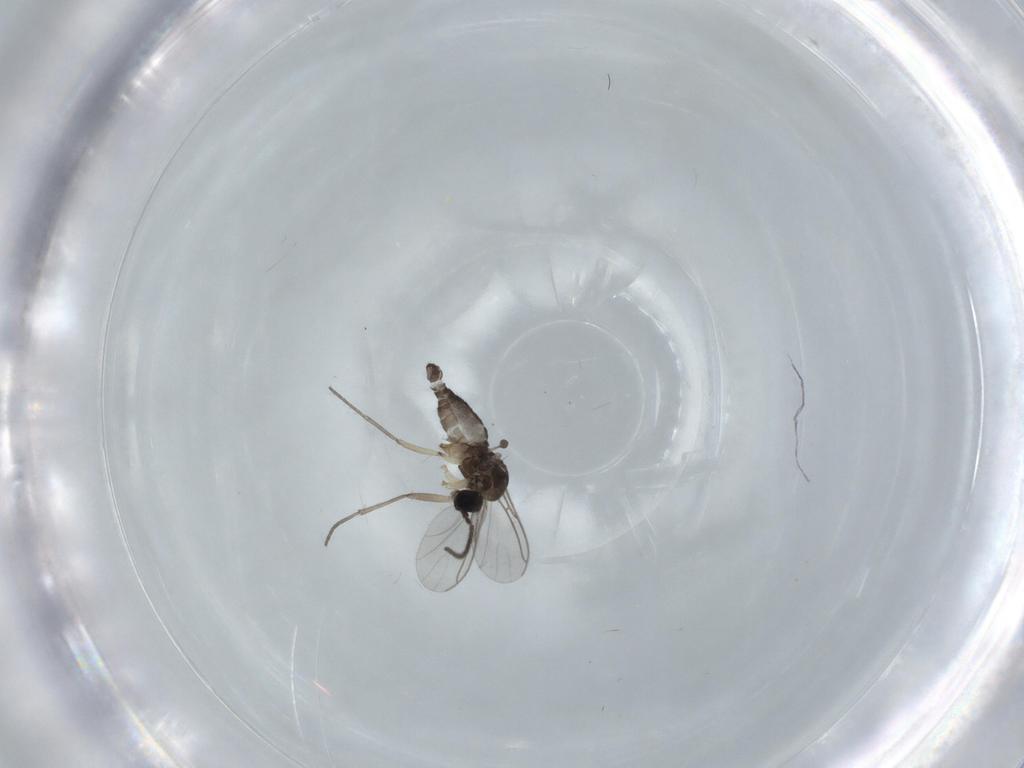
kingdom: Animalia
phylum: Arthropoda
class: Insecta
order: Diptera
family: Sciaridae
